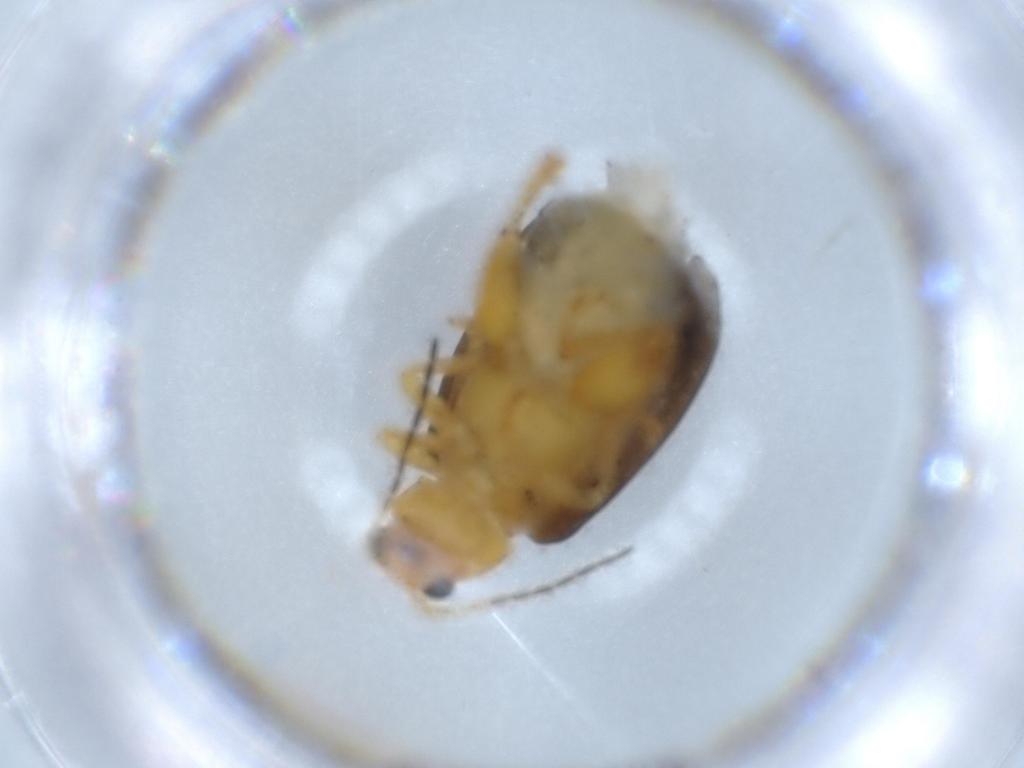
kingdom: Animalia
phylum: Arthropoda
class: Insecta
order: Coleoptera
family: Chrysomelidae
